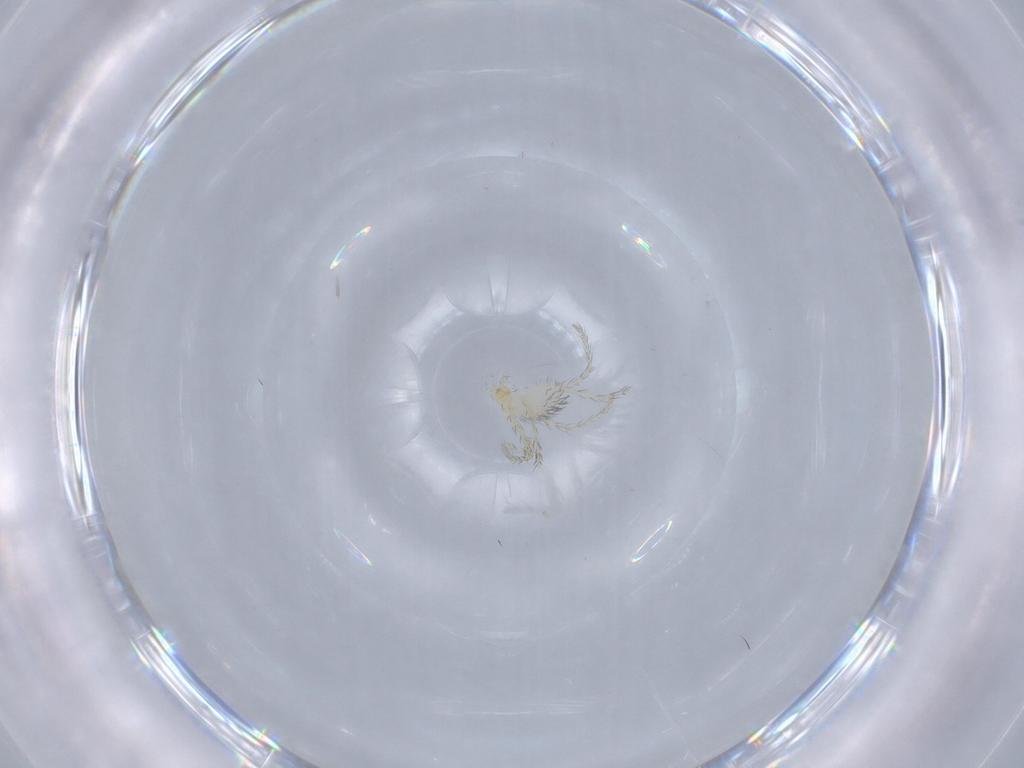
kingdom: Animalia
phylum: Arthropoda
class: Arachnida
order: Trombidiformes
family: Erythraeidae
